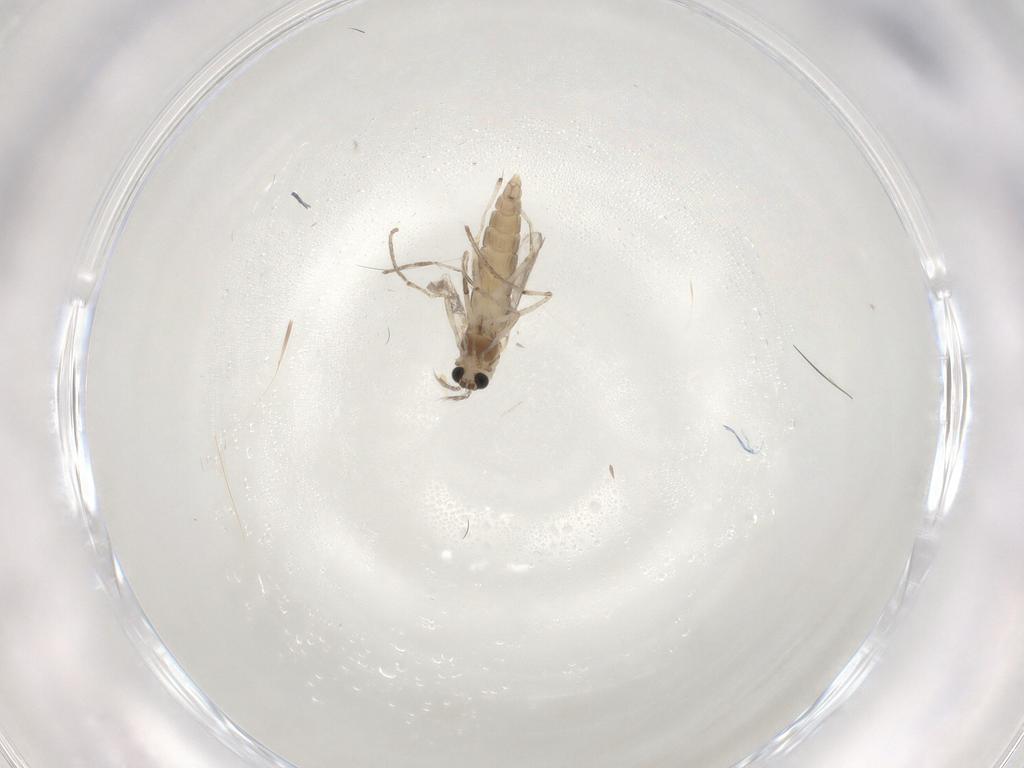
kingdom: Animalia
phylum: Arthropoda
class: Insecta
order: Diptera
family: Chironomidae
